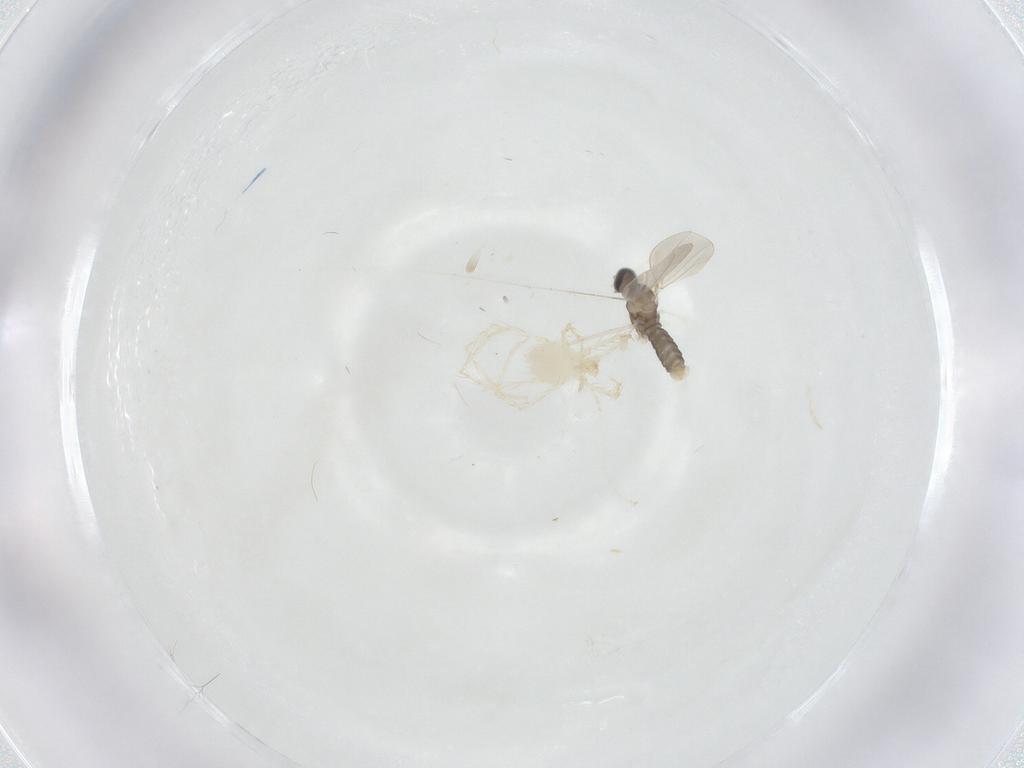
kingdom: Animalia
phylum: Arthropoda
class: Insecta
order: Diptera
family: Cecidomyiidae
